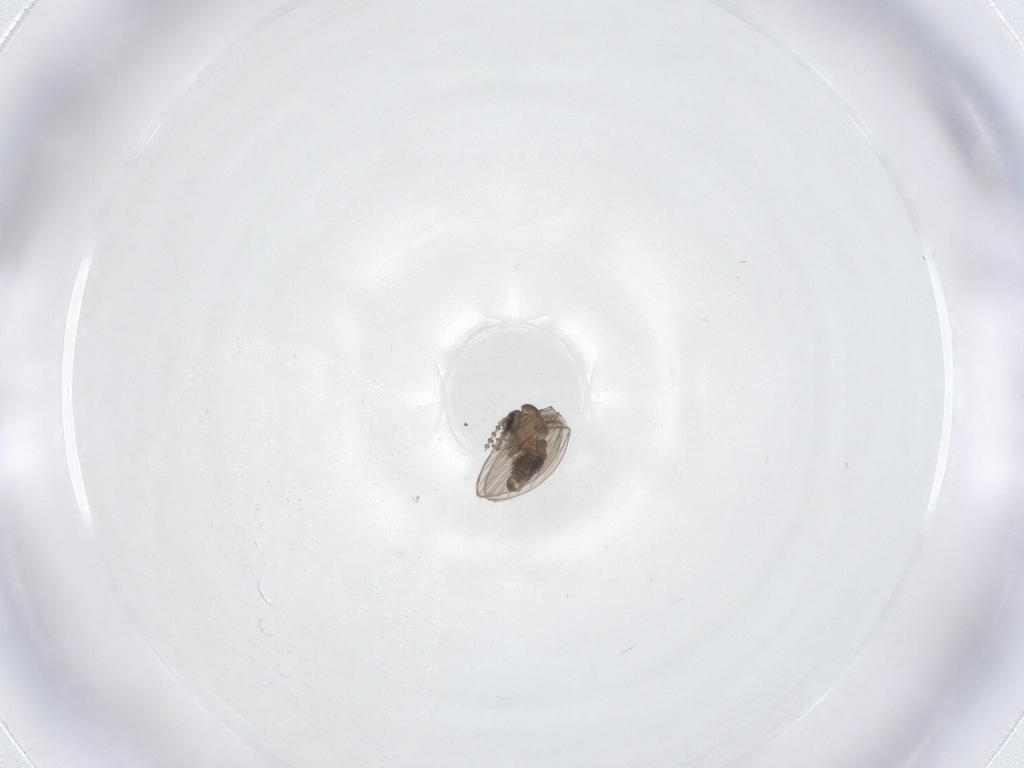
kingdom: Animalia
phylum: Arthropoda
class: Insecta
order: Diptera
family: Psychodidae
